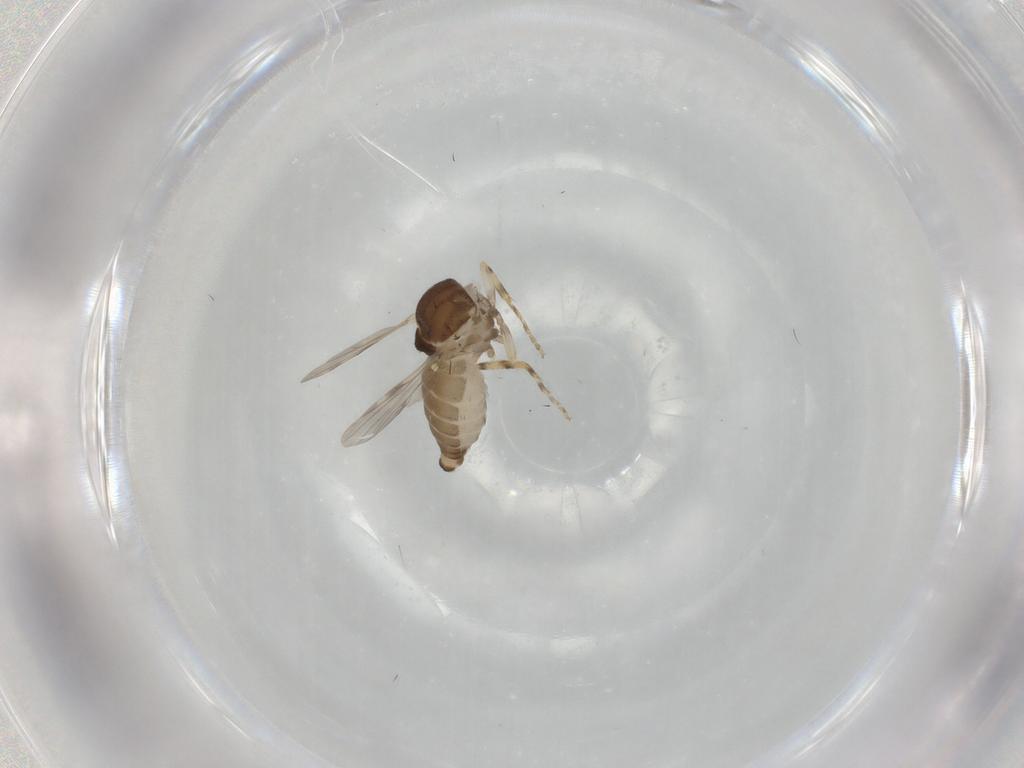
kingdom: Animalia
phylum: Arthropoda
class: Insecta
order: Diptera
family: Ceratopogonidae
